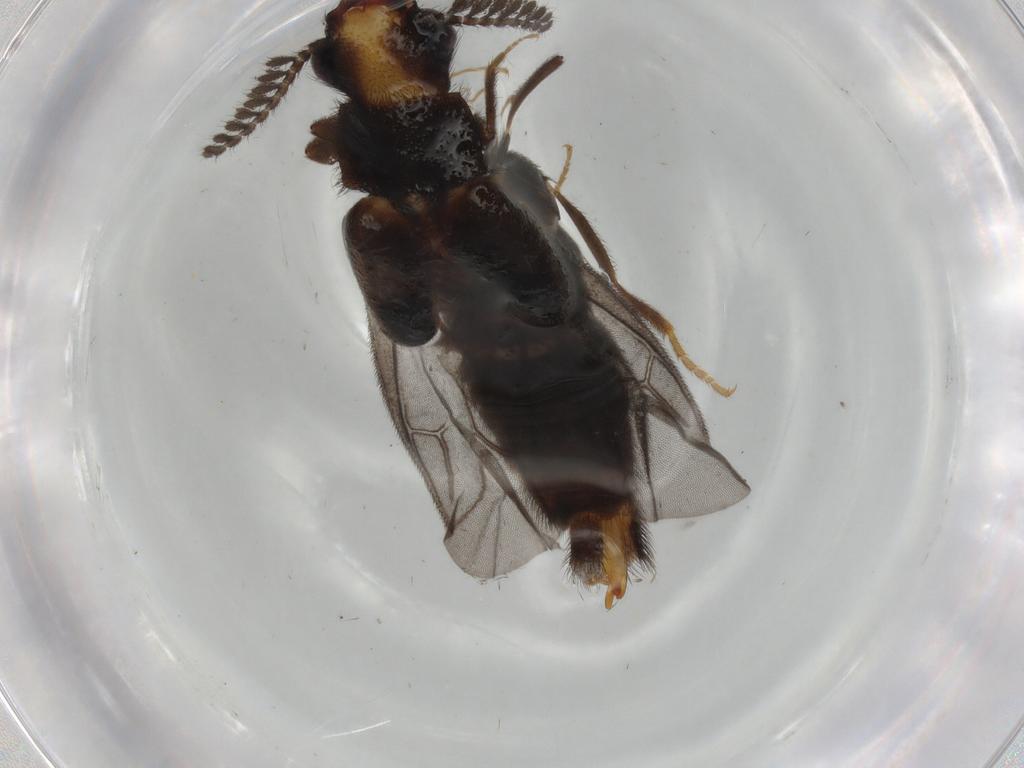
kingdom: Animalia
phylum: Arthropoda
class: Insecta
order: Coleoptera
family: Phengodidae
